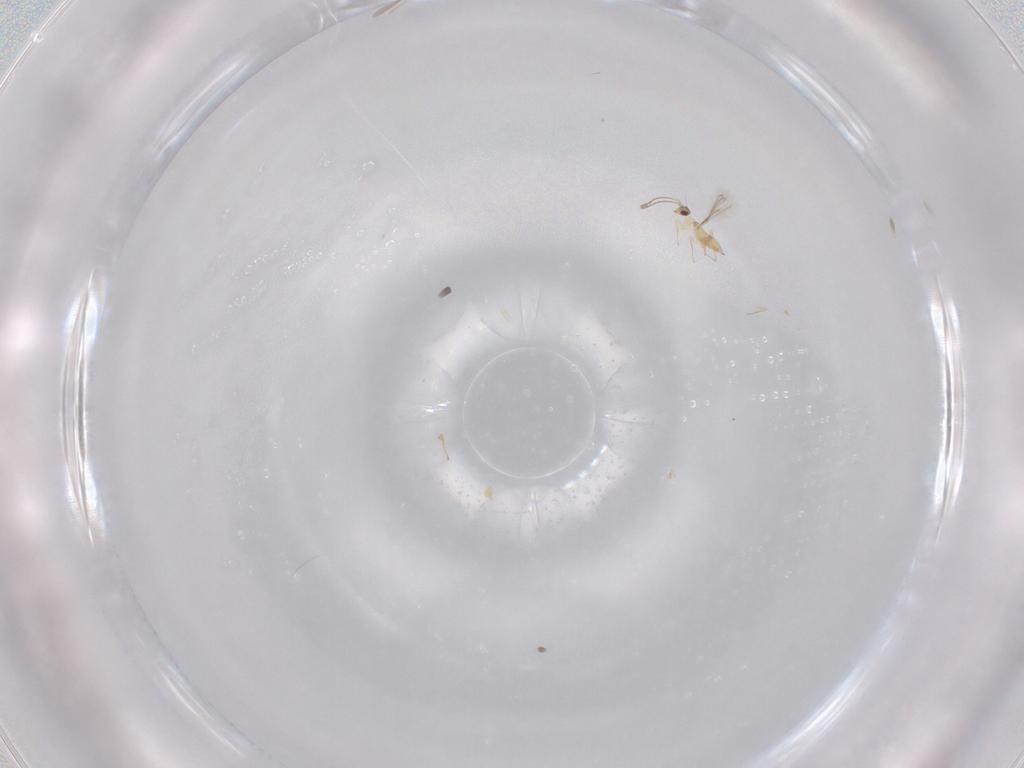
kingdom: Animalia
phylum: Arthropoda
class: Insecta
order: Hymenoptera
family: Mymaridae
